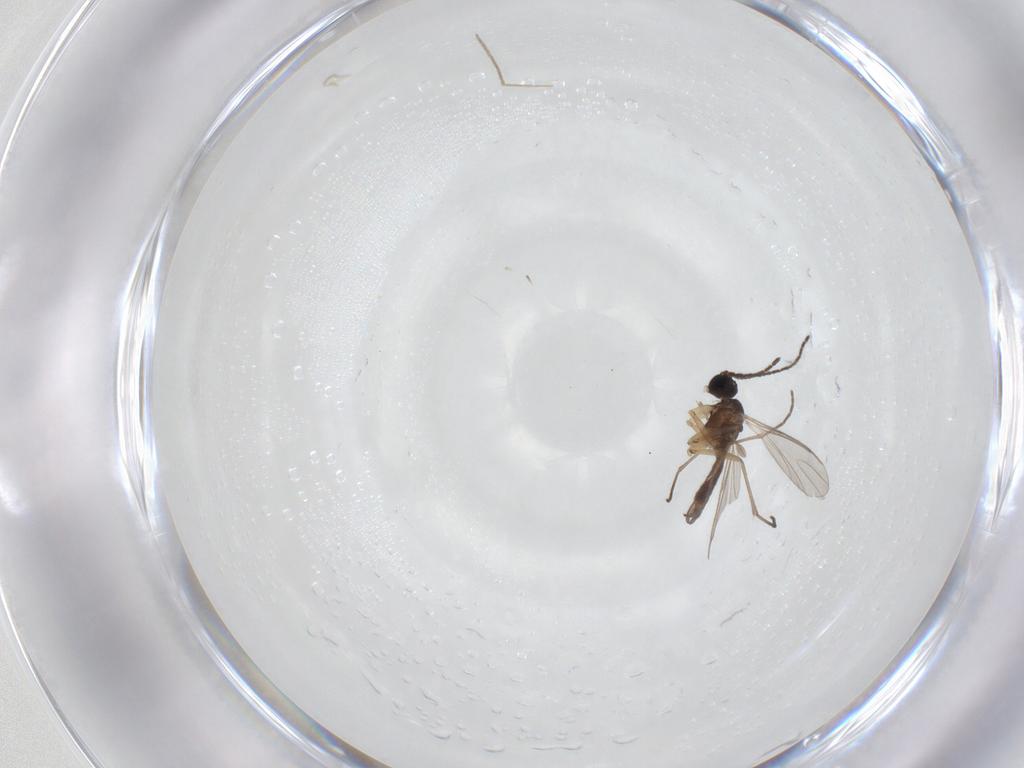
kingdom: Animalia
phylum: Arthropoda
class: Insecta
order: Diptera
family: Sciaridae
